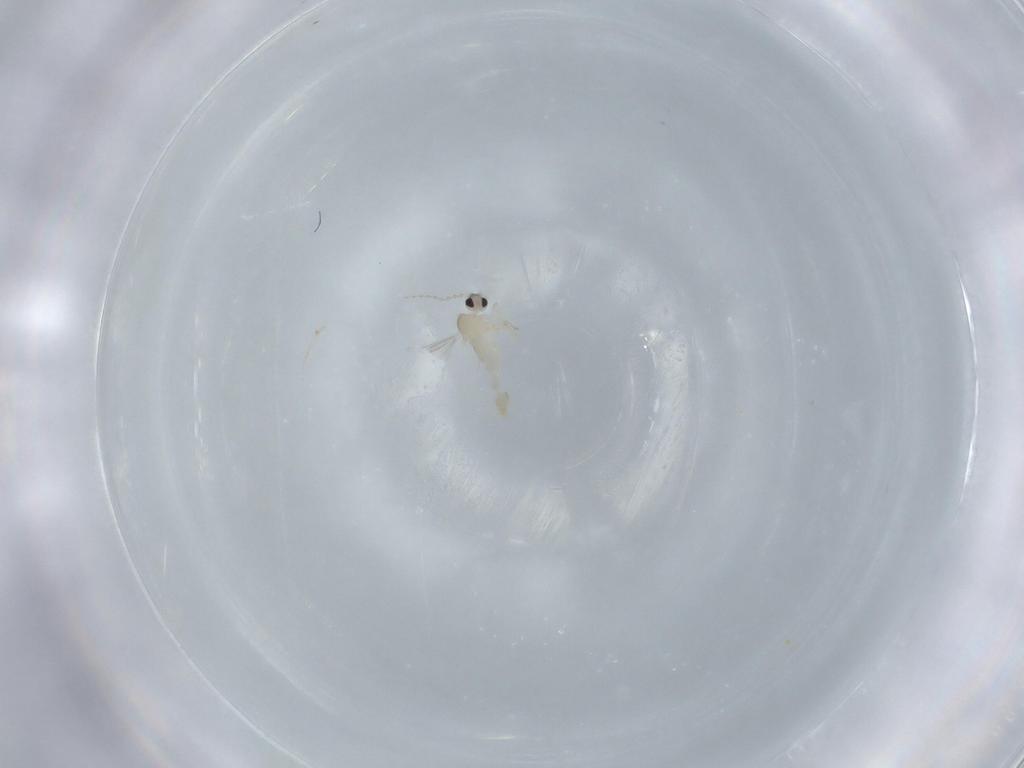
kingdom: Animalia
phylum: Arthropoda
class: Insecta
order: Diptera
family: Cecidomyiidae
